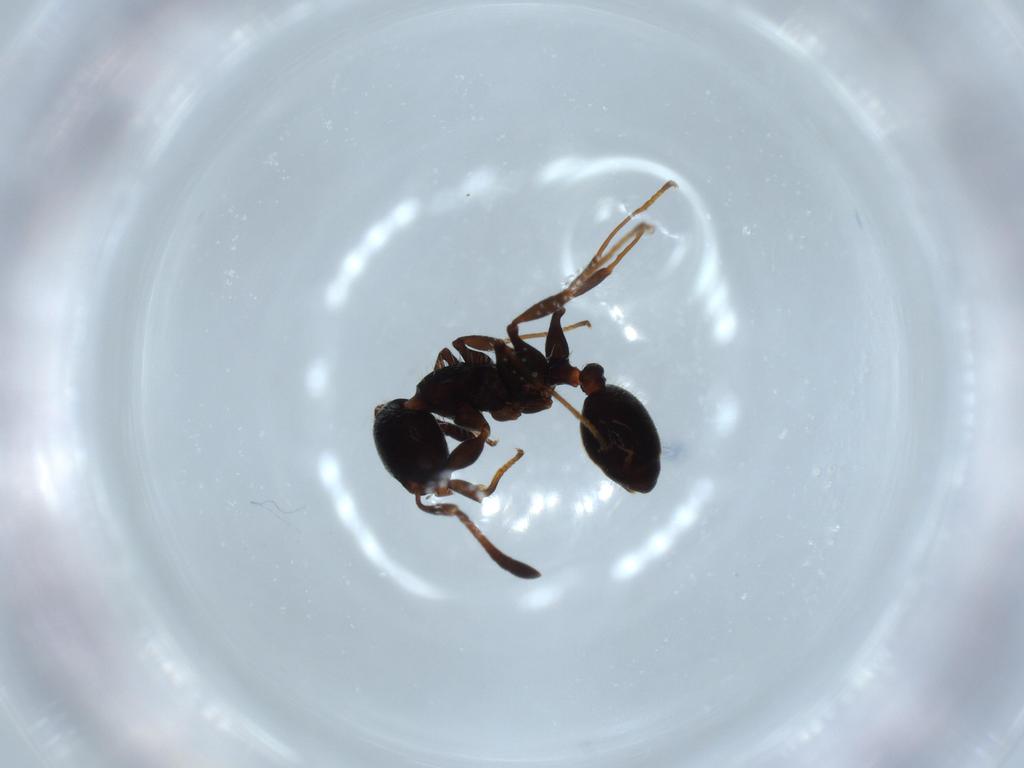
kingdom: Animalia
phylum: Arthropoda
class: Insecta
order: Hymenoptera
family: Formicidae
